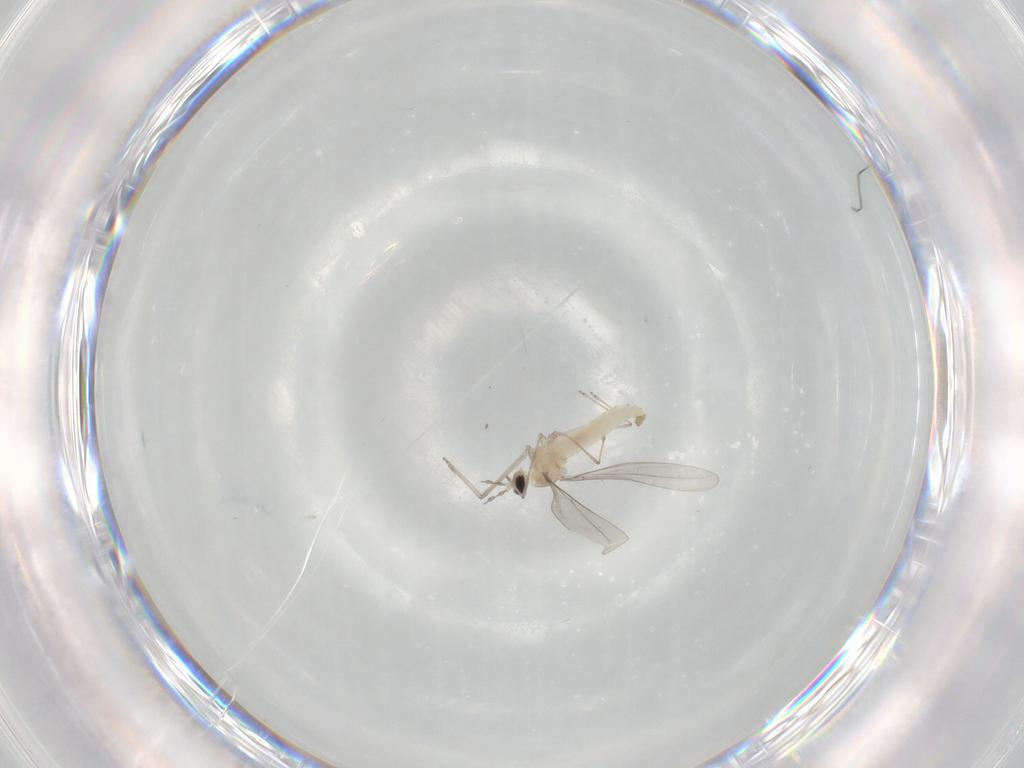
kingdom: Animalia
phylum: Arthropoda
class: Insecta
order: Diptera
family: Cecidomyiidae
